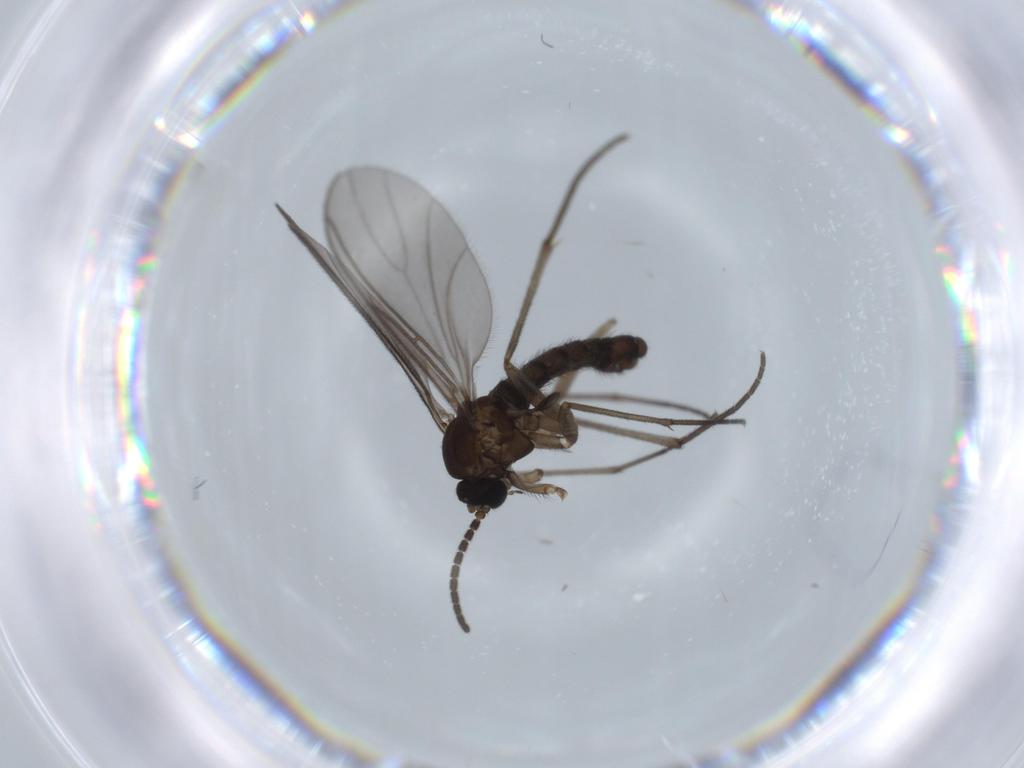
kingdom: Animalia
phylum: Arthropoda
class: Insecta
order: Diptera
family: Sciaridae
